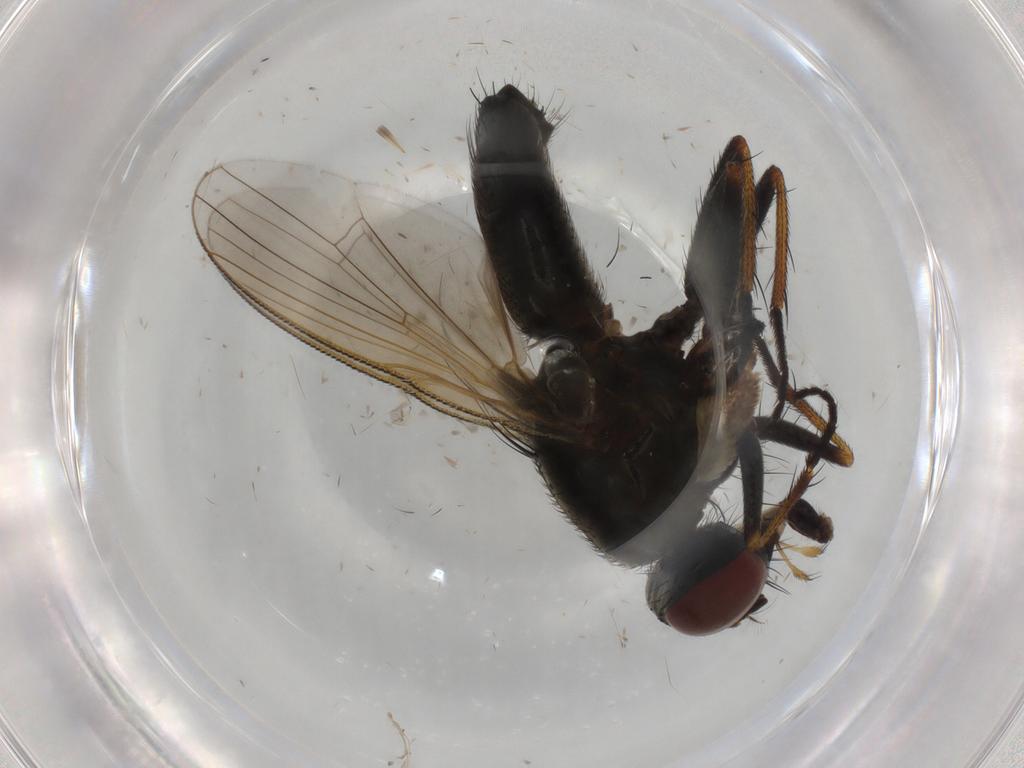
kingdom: Animalia
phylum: Arthropoda
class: Insecta
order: Diptera
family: Muscidae
